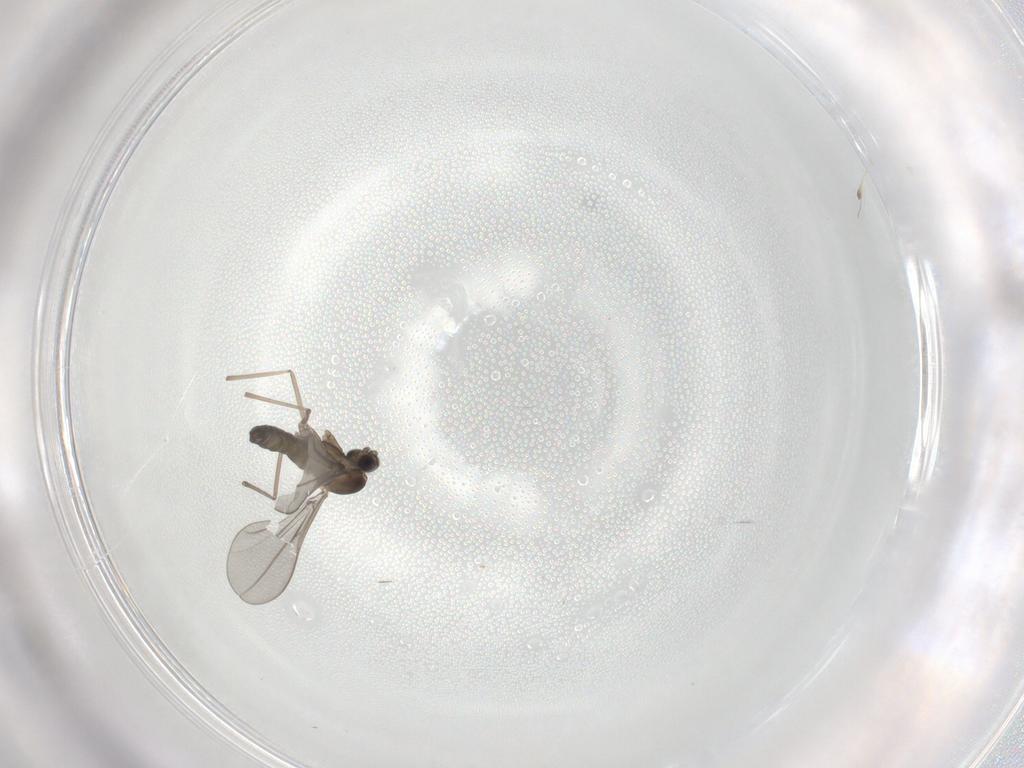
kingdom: Animalia
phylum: Arthropoda
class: Insecta
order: Diptera
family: Cecidomyiidae
